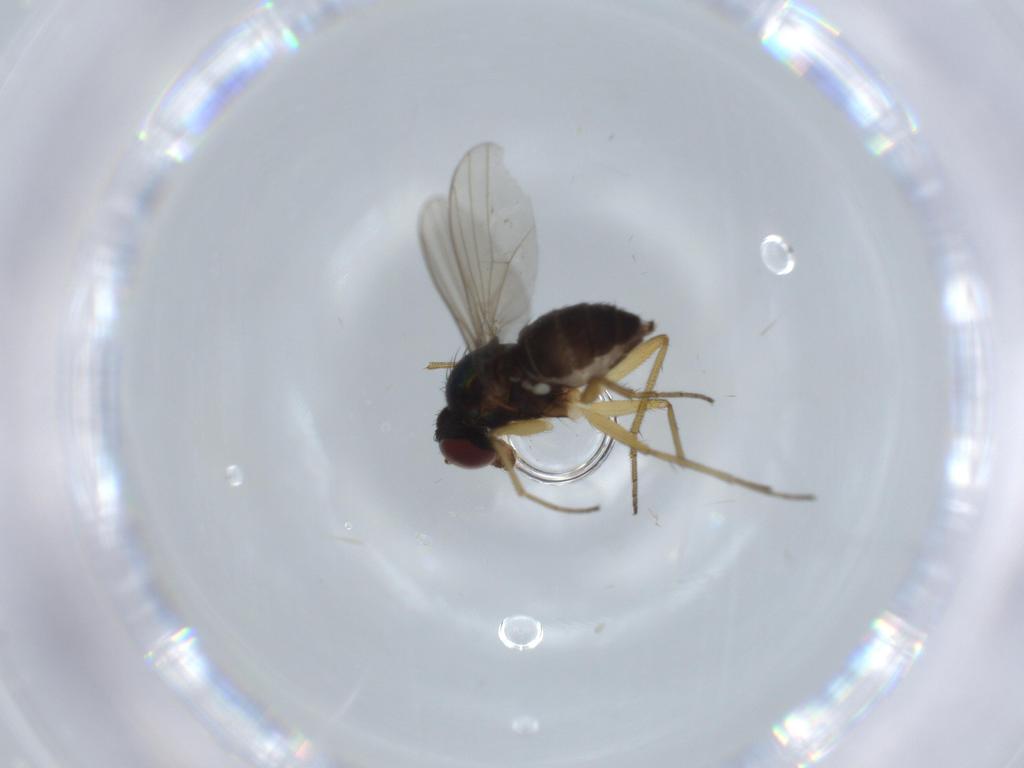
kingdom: Animalia
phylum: Arthropoda
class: Insecta
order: Diptera
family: Dolichopodidae
